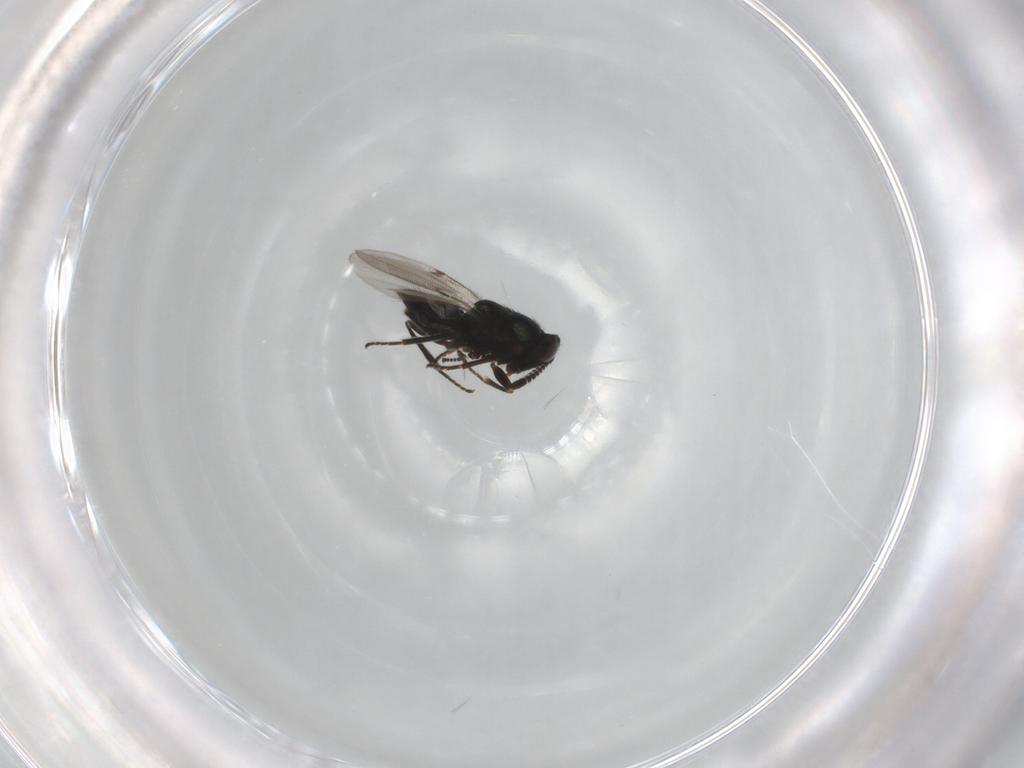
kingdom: Animalia
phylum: Arthropoda
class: Insecta
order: Hymenoptera
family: Encyrtidae
